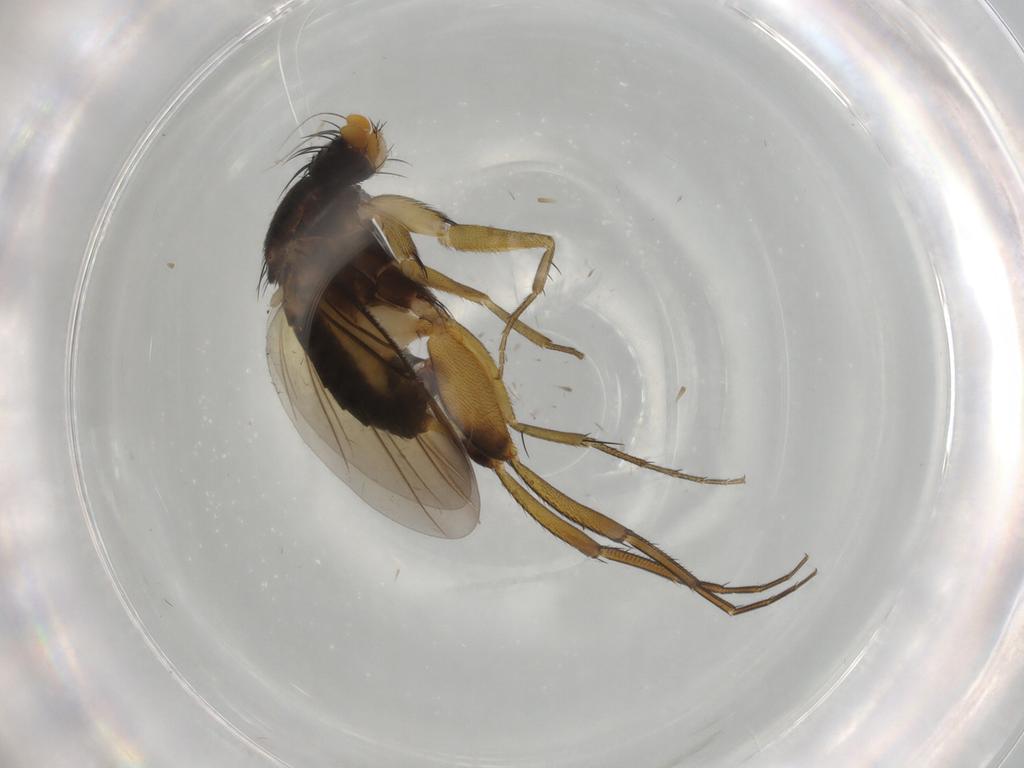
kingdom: Animalia
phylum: Arthropoda
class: Insecta
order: Diptera
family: Phoridae
